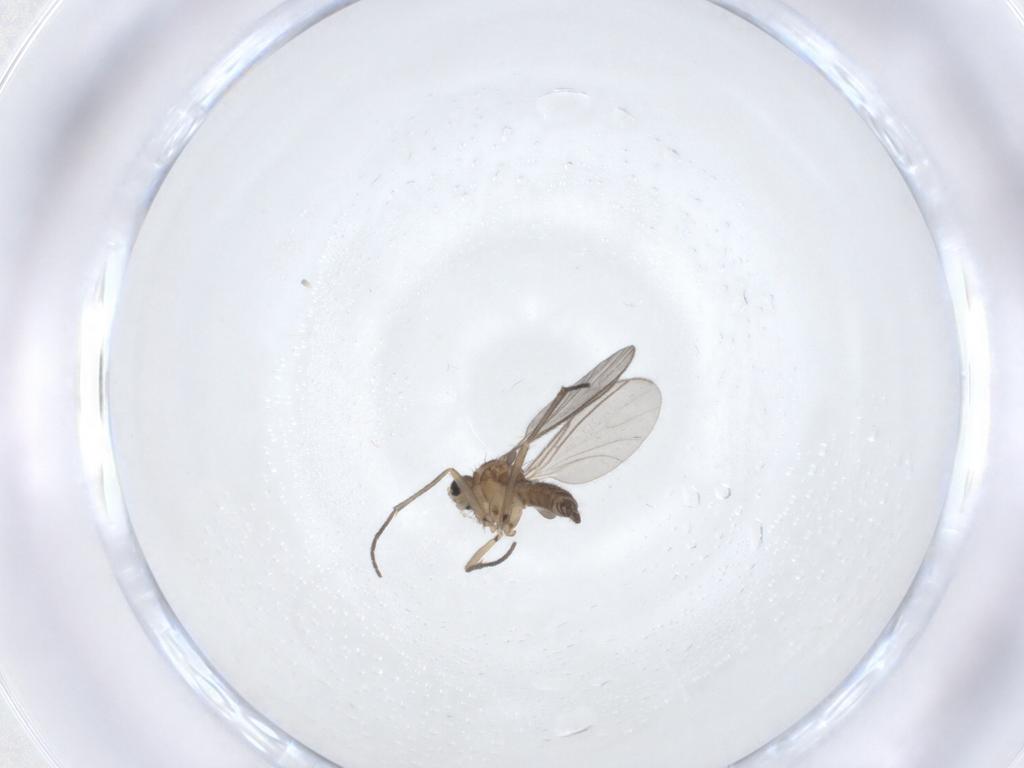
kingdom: Animalia
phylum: Arthropoda
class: Insecta
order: Diptera
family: Sciaridae
